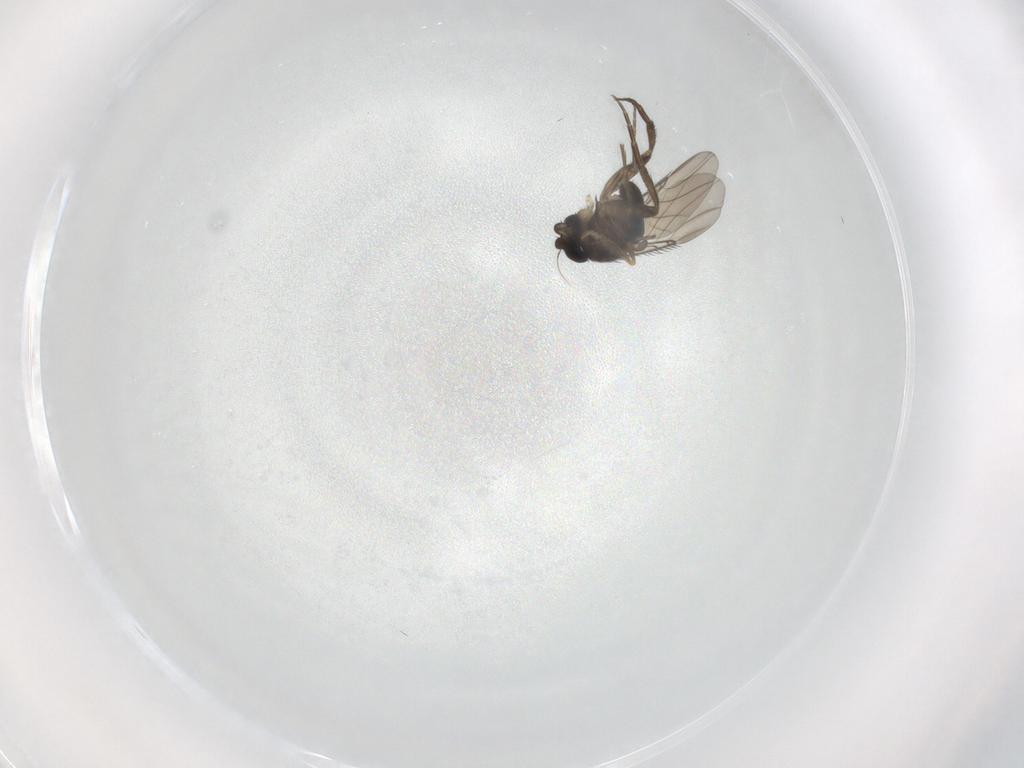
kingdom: Animalia
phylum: Arthropoda
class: Insecta
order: Diptera
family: Phoridae
